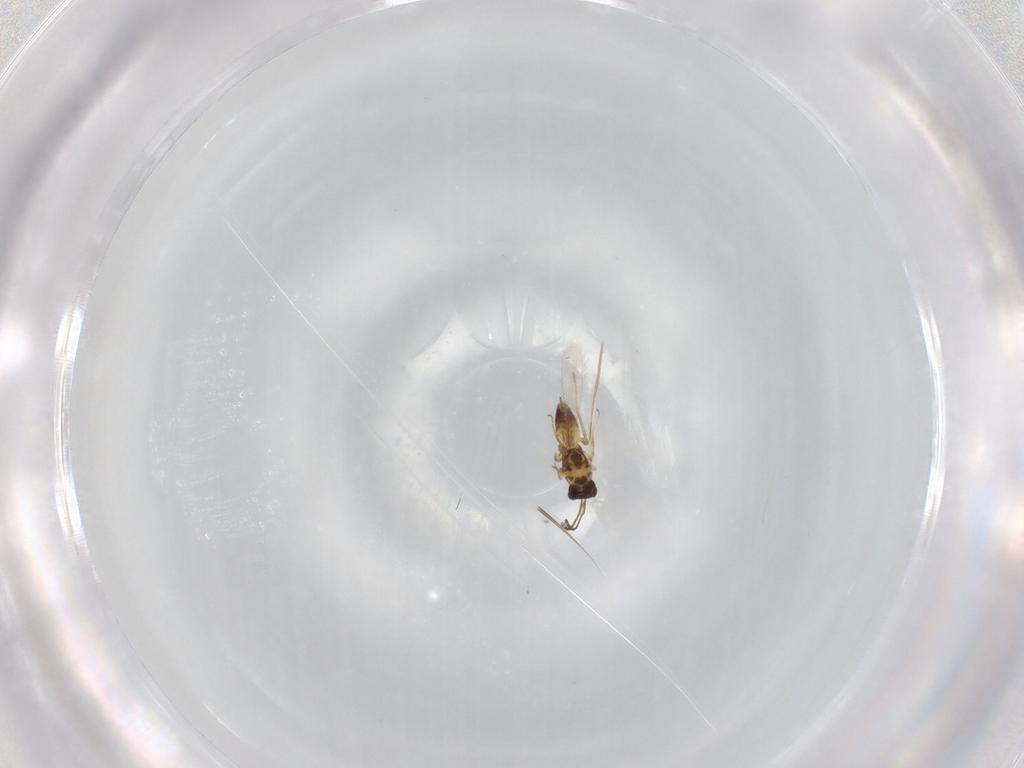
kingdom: Animalia
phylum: Arthropoda
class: Insecta
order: Hymenoptera
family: Mymaridae
